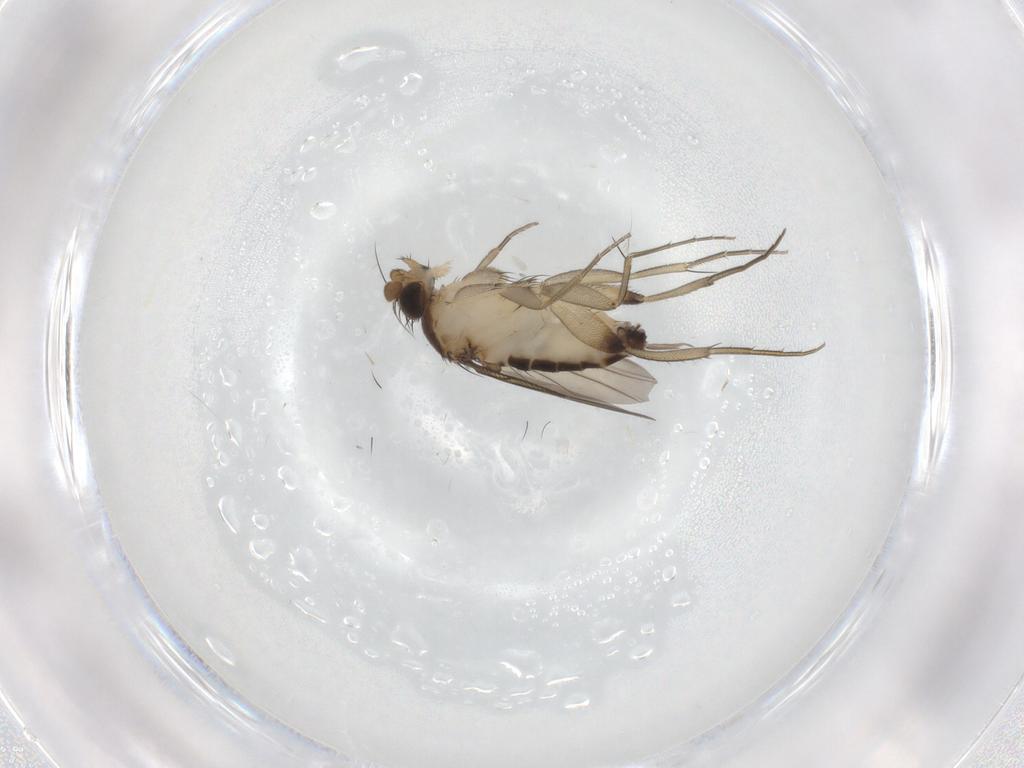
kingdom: Animalia
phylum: Arthropoda
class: Insecta
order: Diptera
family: Phoridae
